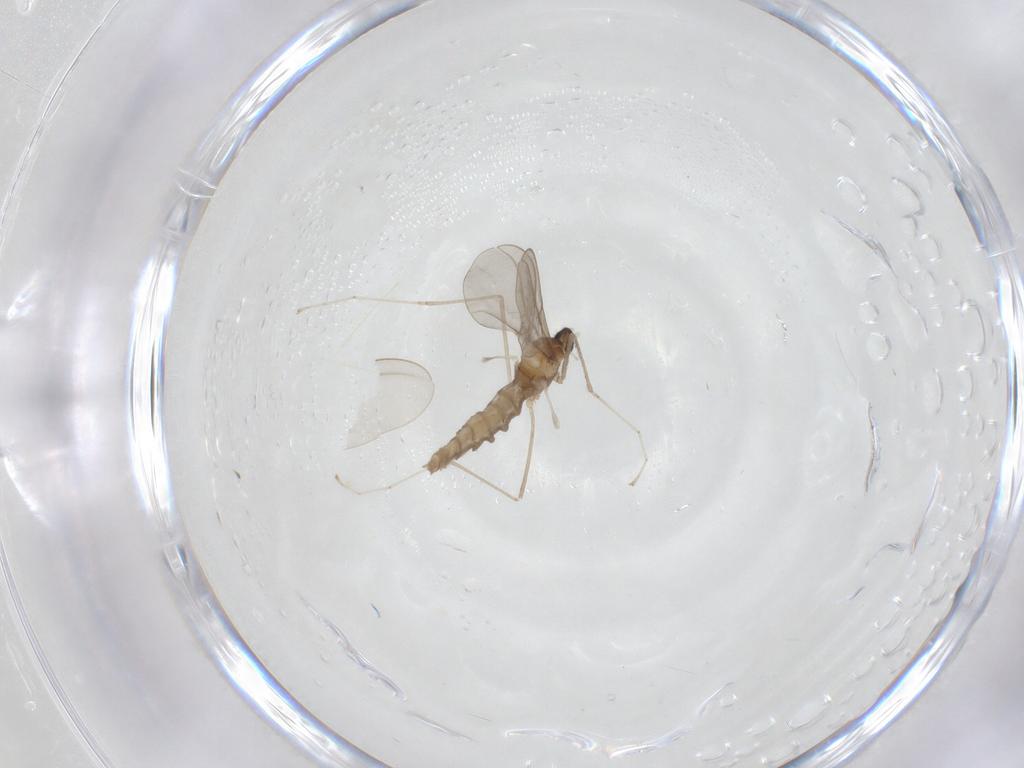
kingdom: Animalia
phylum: Arthropoda
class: Insecta
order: Diptera
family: Cecidomyiidae
